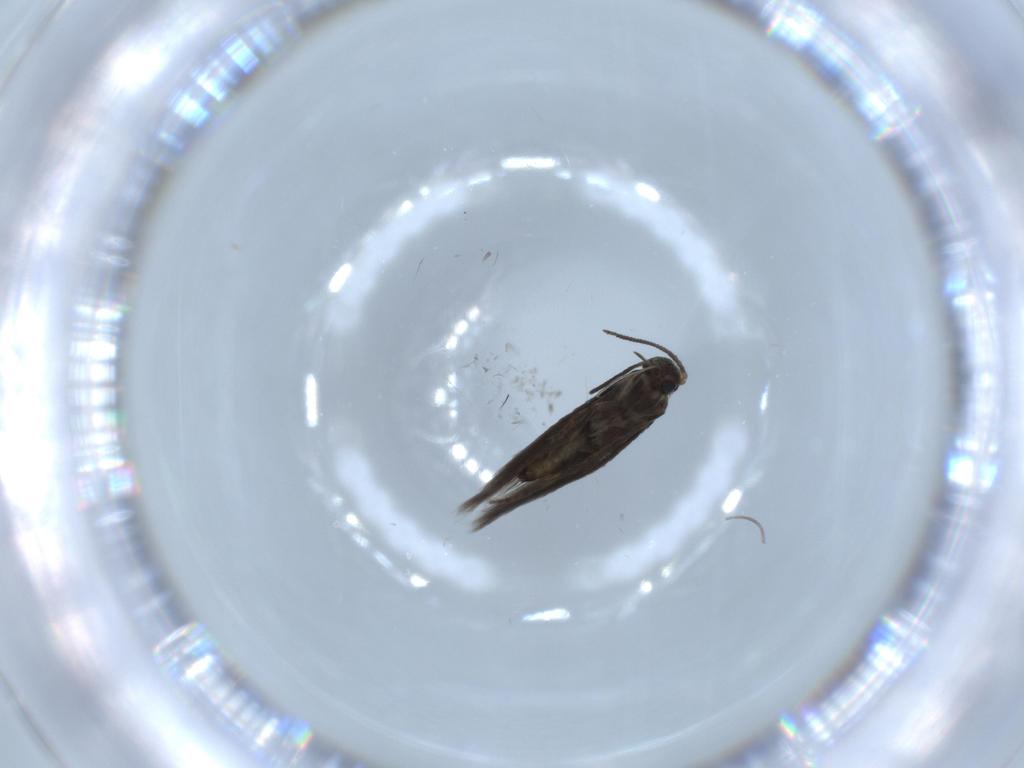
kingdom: Animalia
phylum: Arthropoda
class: Insecta
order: Lepidoptera
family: Heliozelidae
